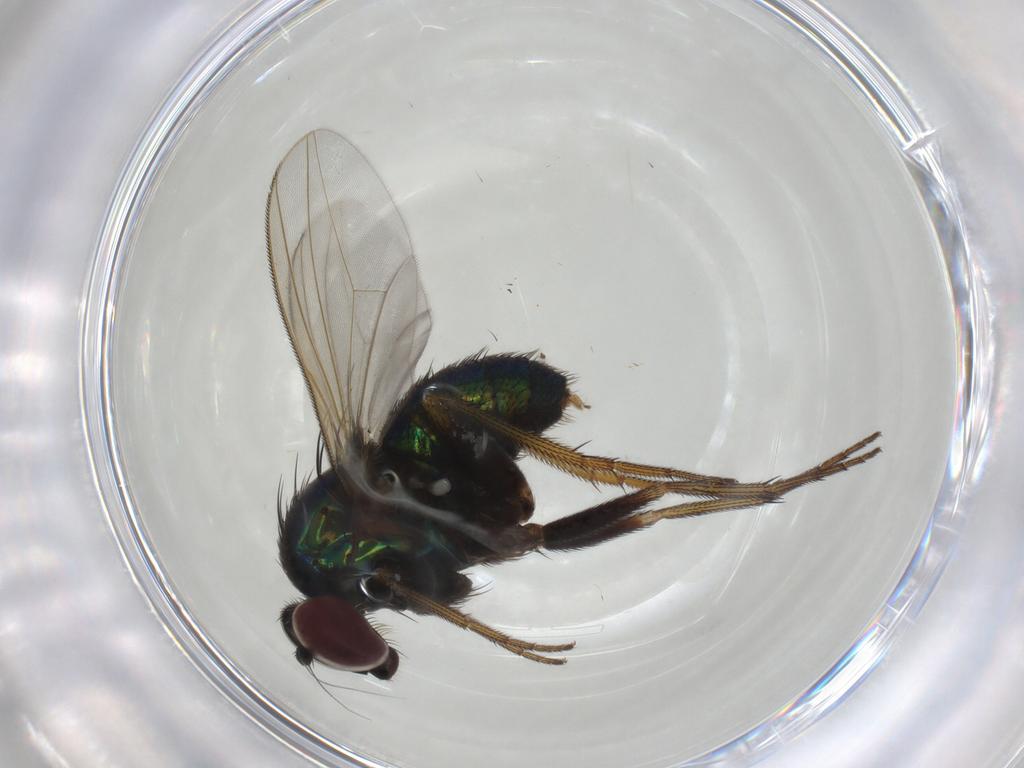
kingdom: Animalia
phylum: Arthropoda
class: Insecta
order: Diptera
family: Dolichopodidae
